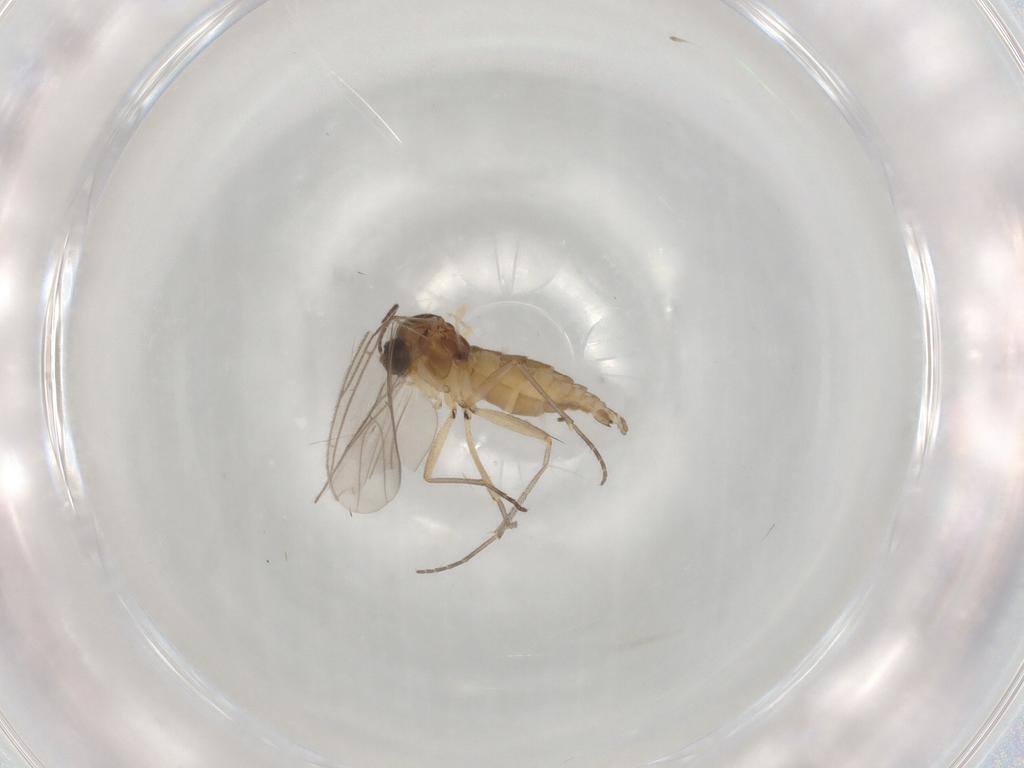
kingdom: Animalia
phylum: Arthropoda
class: Insecta
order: Diptera
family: Sciaridae
